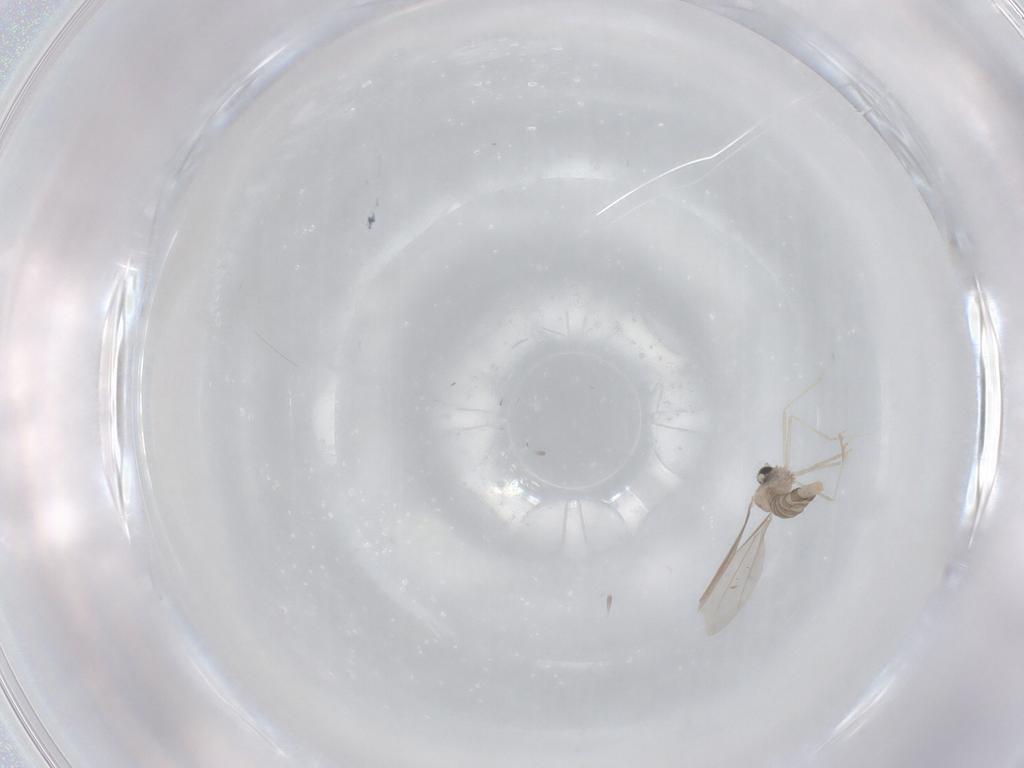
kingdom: Animalia
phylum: Arthropoda
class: Insecta
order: Diptera
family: Cecidomyiidae
